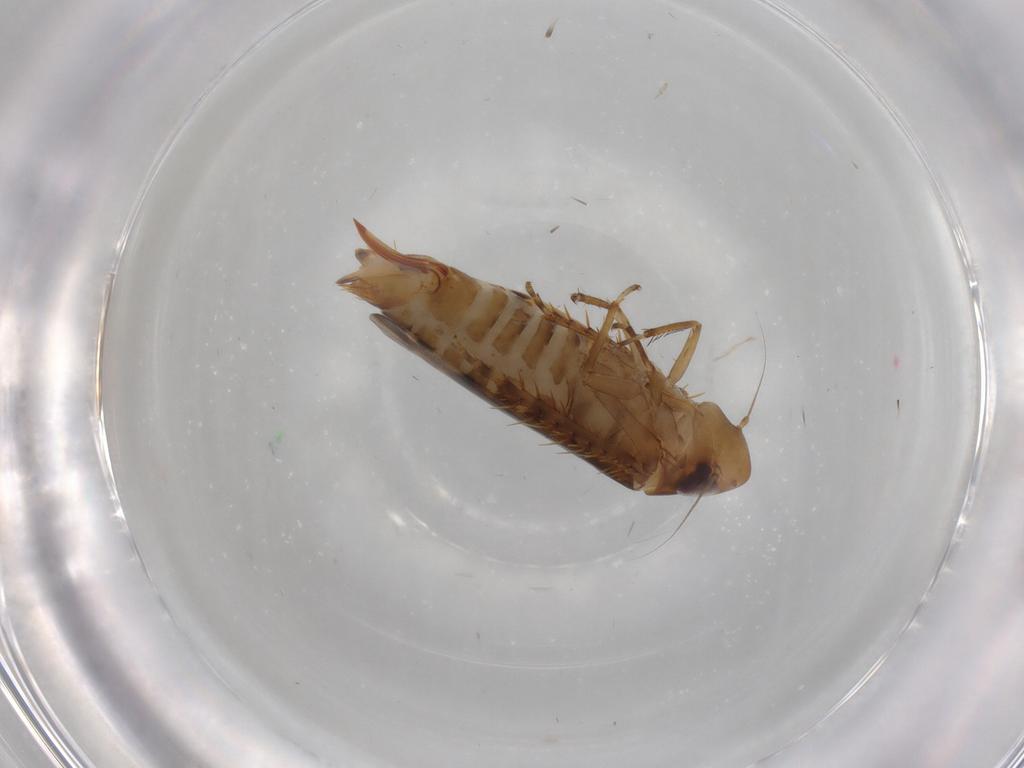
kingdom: Animalia
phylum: Arthropoda
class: Insecta
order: Hemiptera
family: Cicadellidae
